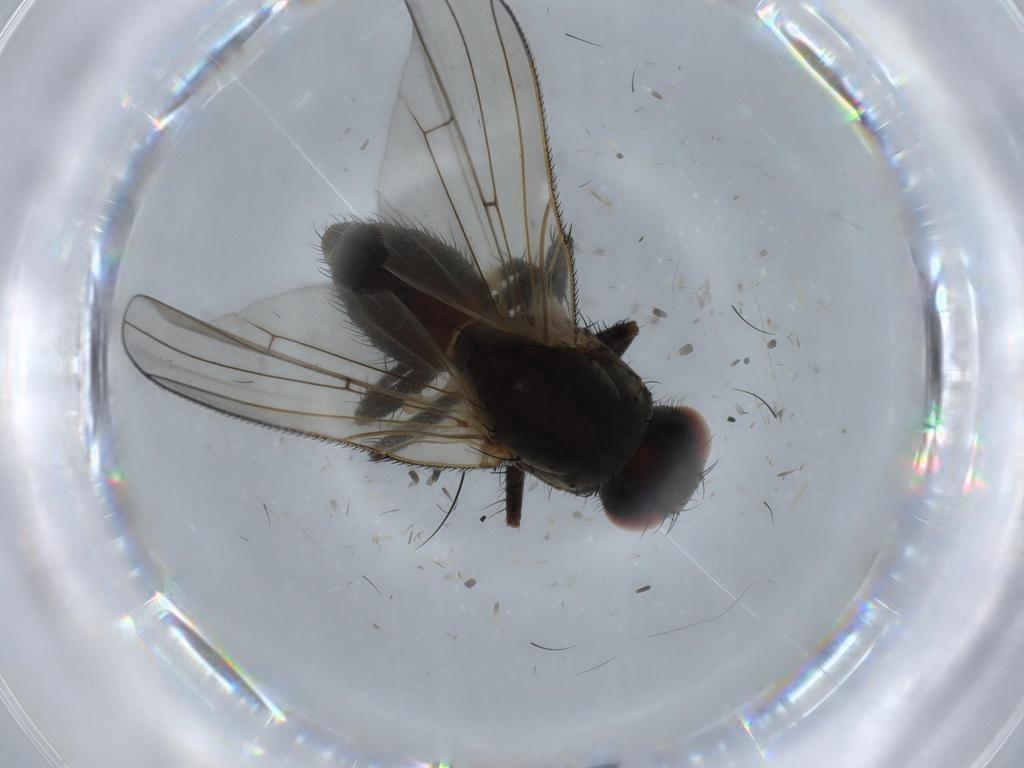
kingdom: Animalia
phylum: Arthropoda
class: Insecta
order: Diptera
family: Anthomyiidae
